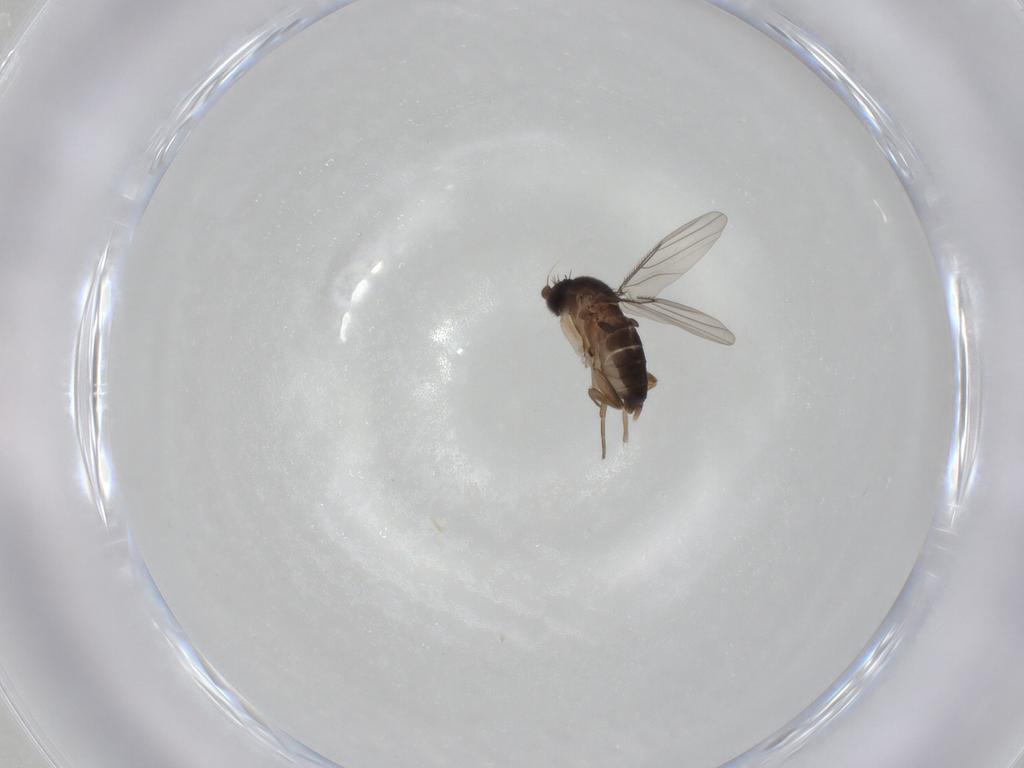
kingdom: Animalia
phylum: Arthropoda
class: Insecta
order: Diptera
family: Phoridae
